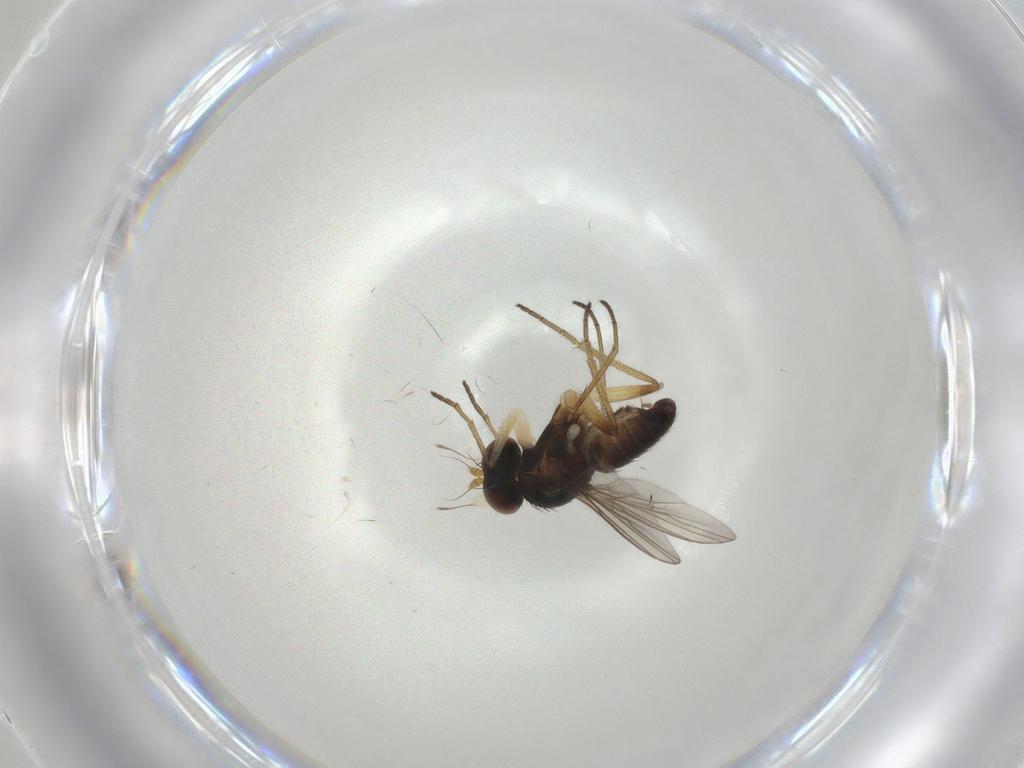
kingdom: Animalia
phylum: Arthropoda
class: Insecta
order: Diptera
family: Dolichopodidae
